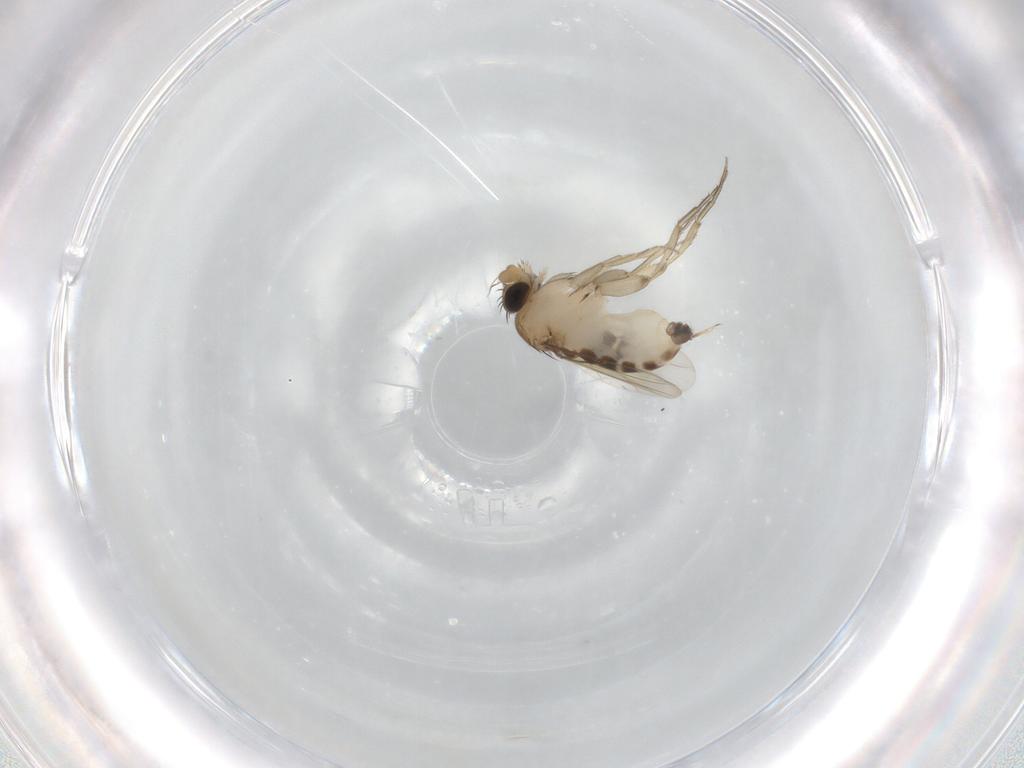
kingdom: Animalia
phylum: Arthropoda
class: Insecta
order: Diptera
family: Phoridae
